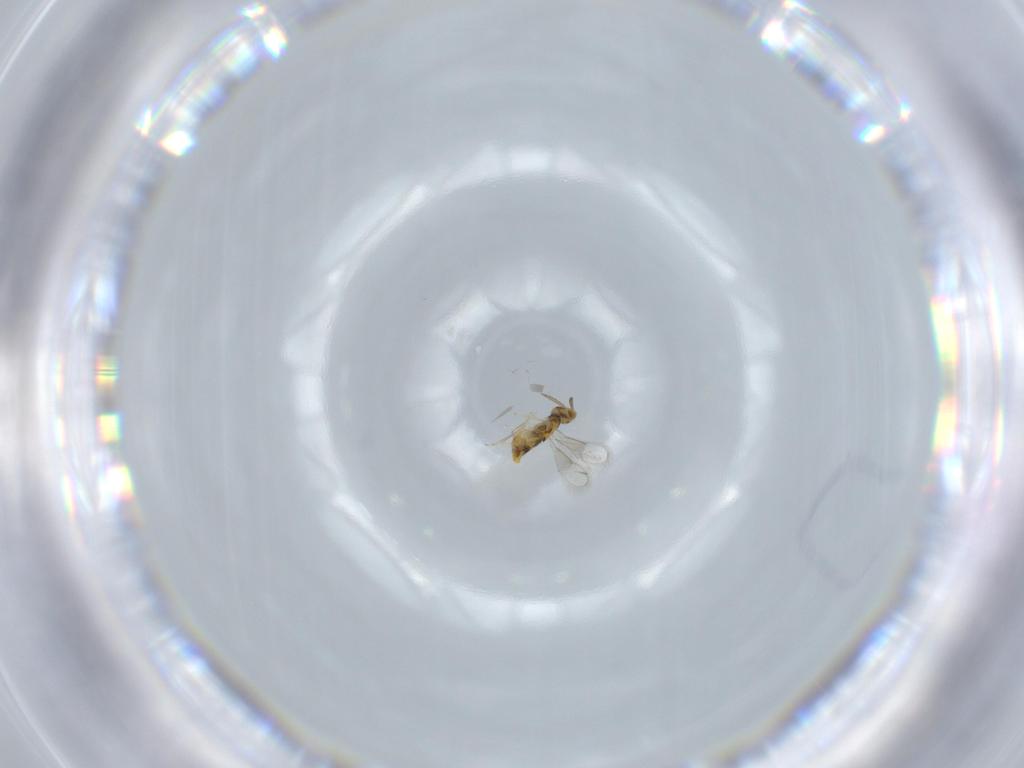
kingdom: Animalia
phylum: Arthropoda
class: Insecta
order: Hymenoptera
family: Aphelinidae
